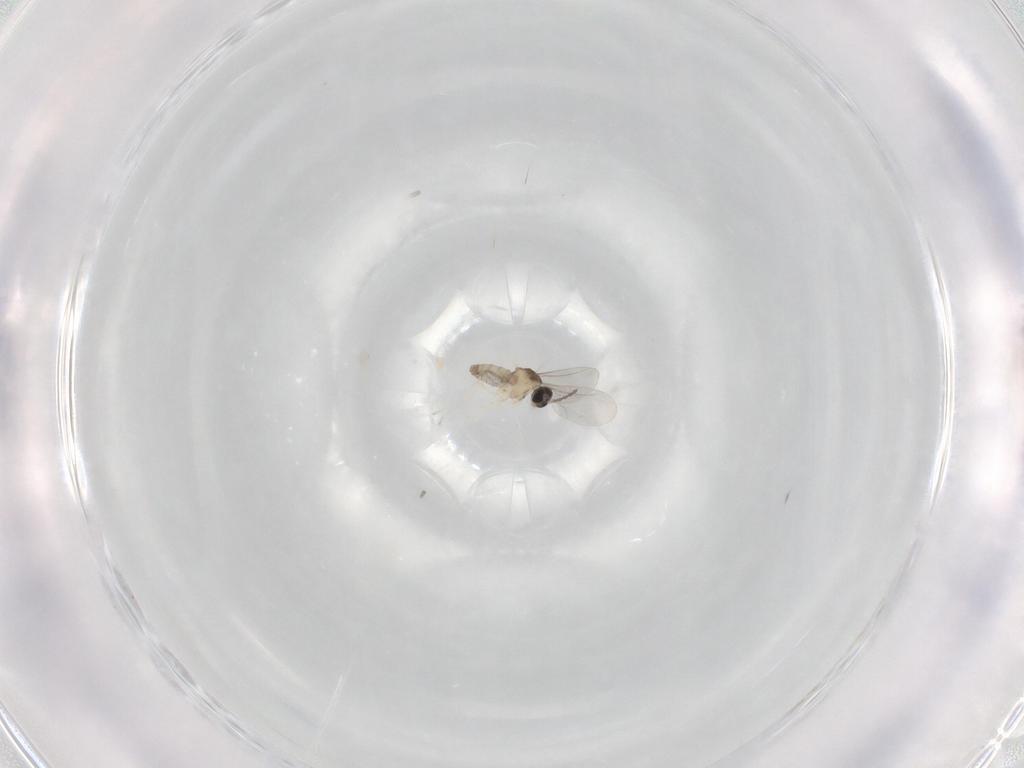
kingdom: Animalia
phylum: Arthropoda
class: Insecta
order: Diptera
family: Cecidomyiidae
